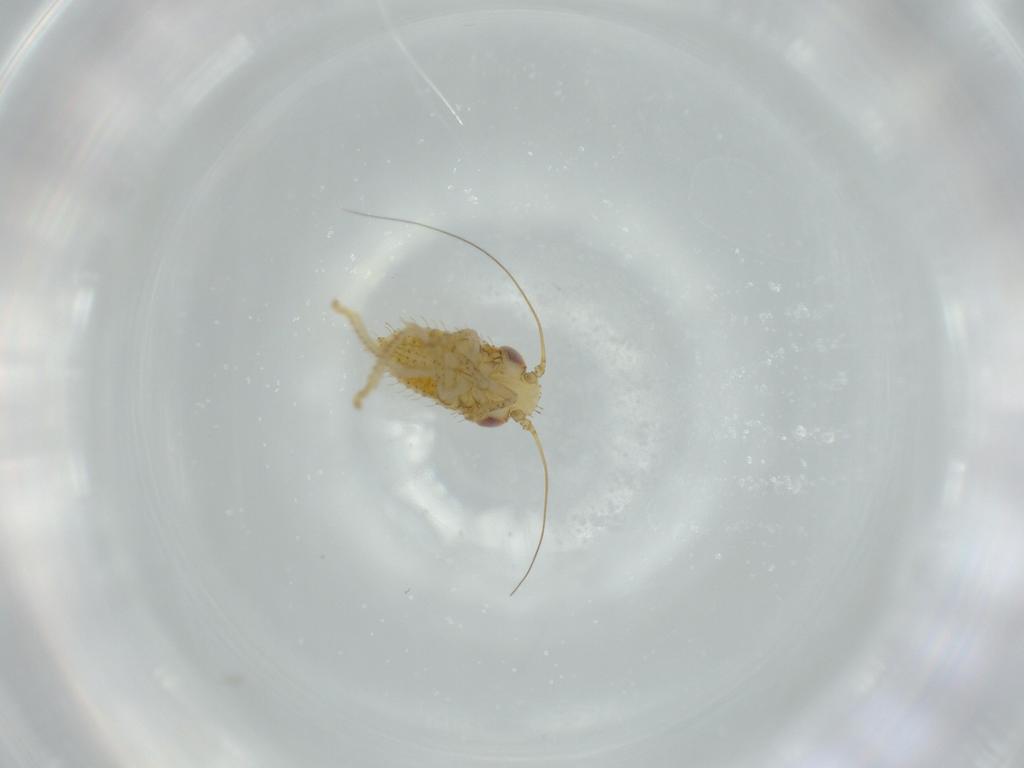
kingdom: Animalia
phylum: Arthropoda
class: Insecta
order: Hemiptera
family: Cicadellidae
